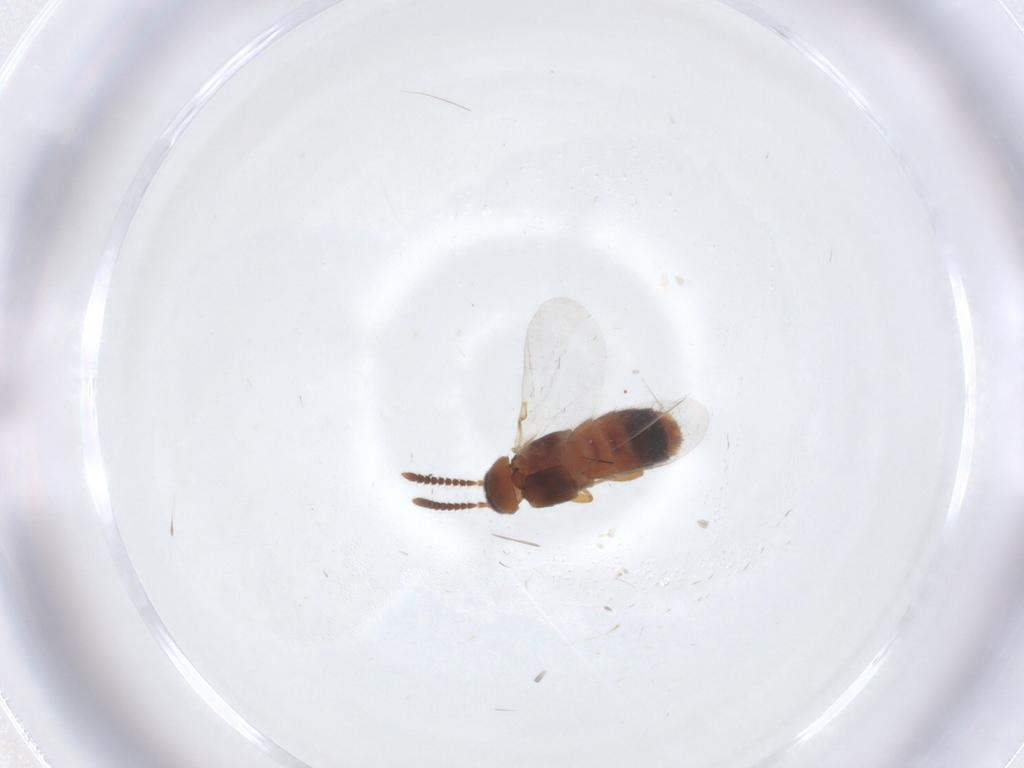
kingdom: Animalia
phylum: Arthropoda
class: Insecta
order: Coleoptera
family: Staphylinidae
